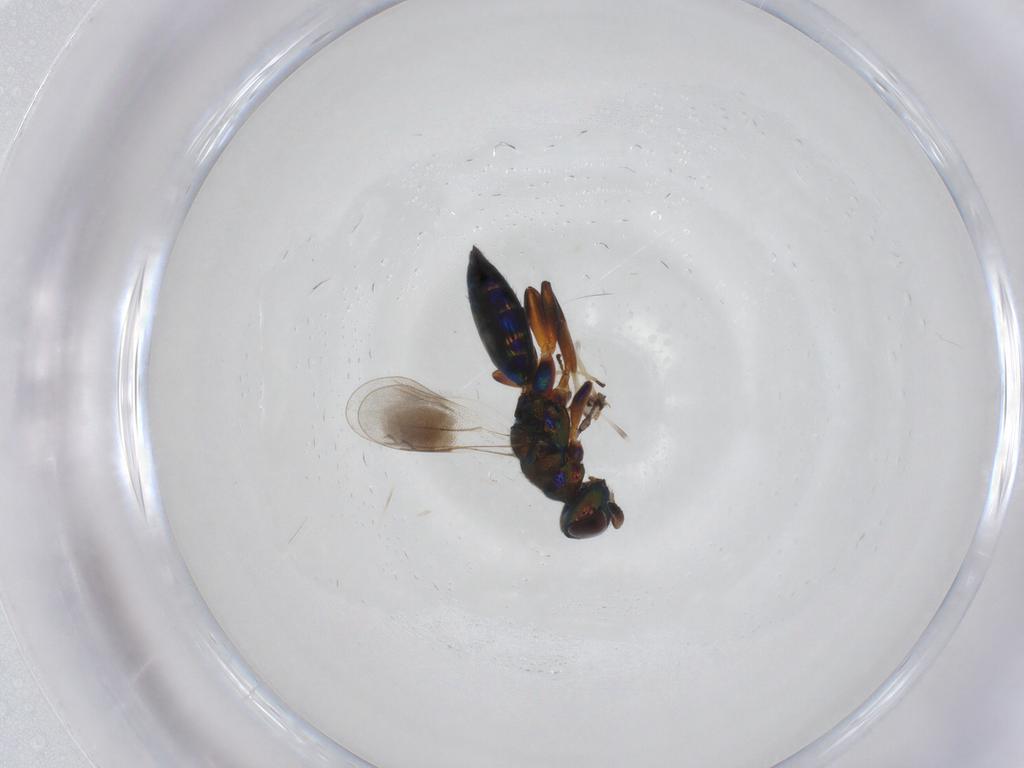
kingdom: Animalia
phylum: Arthropoda
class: Insecta
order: Hymenoptera
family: Cleonyminae
